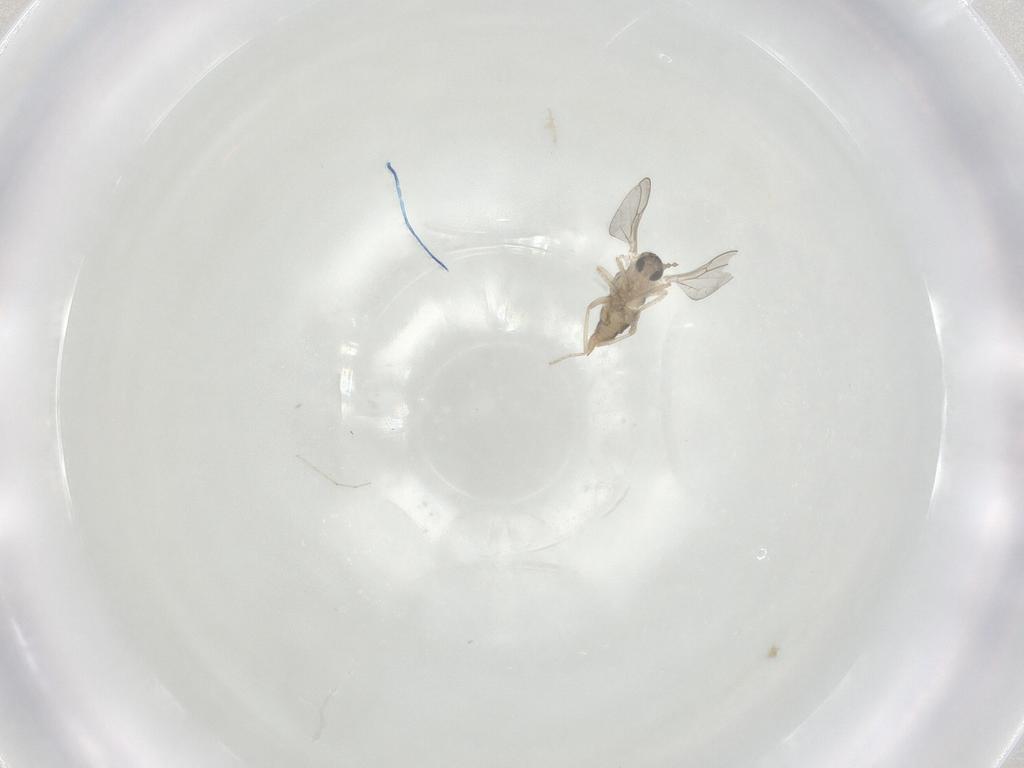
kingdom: Animalia
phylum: Arthropoda
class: Insecta
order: Diptera
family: Cecidomyiidae
